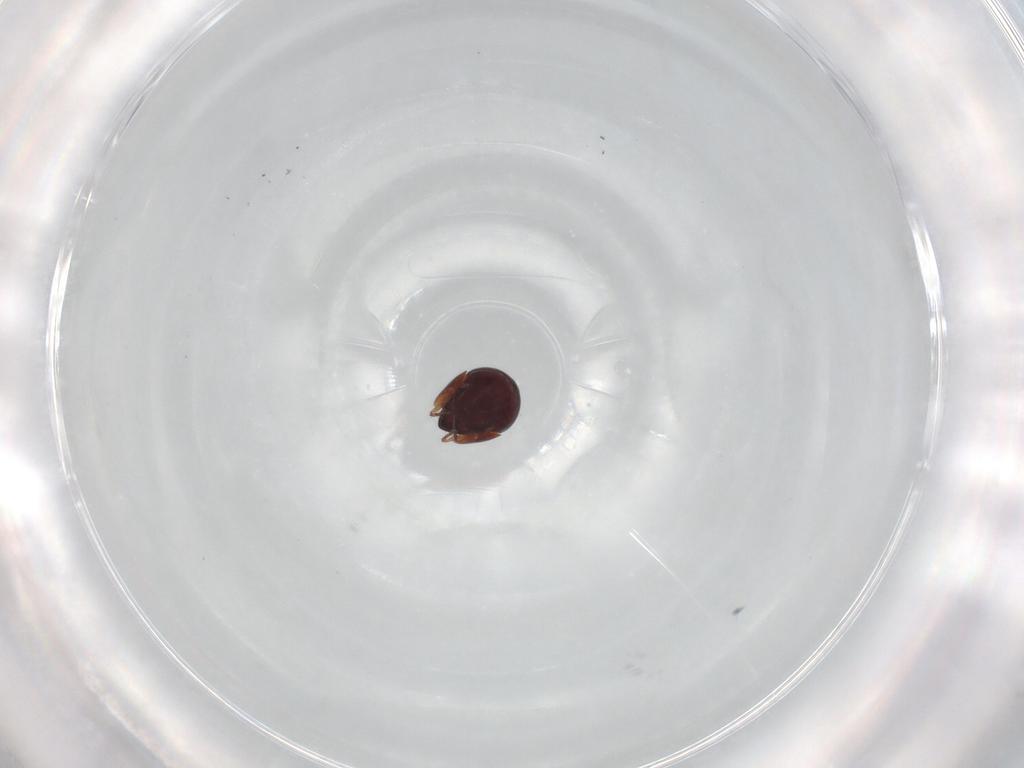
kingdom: Animalia
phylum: Arthropoda
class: Arachnida
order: Sarcoptiformes
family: Galumnidae
